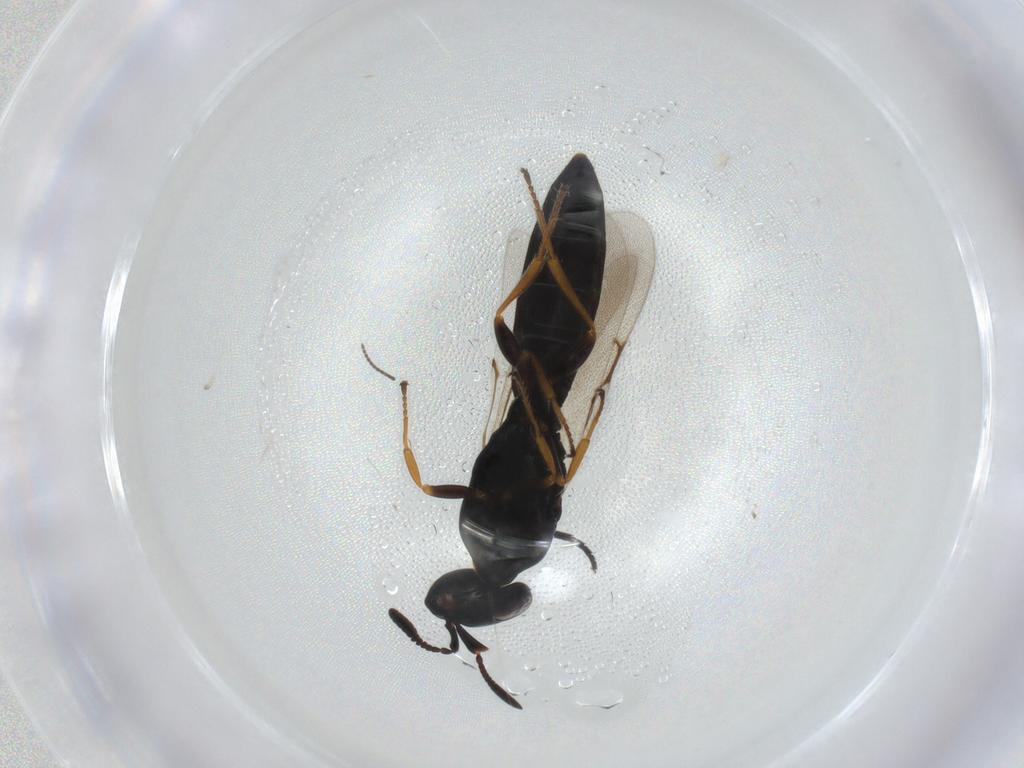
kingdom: Animalia
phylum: Arthropoda
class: Insecta
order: Hymenoptera
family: Scelionidae
